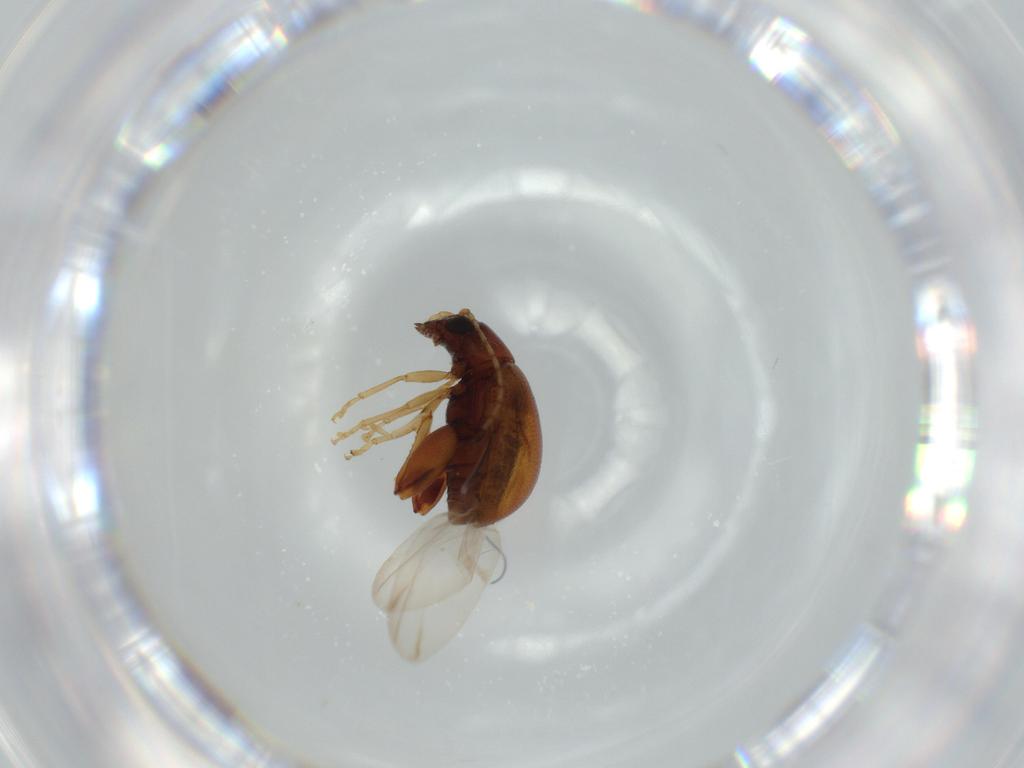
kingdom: Animalia
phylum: Arthropoda
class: Insecta
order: Coleoptera
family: Chrysomelidae
